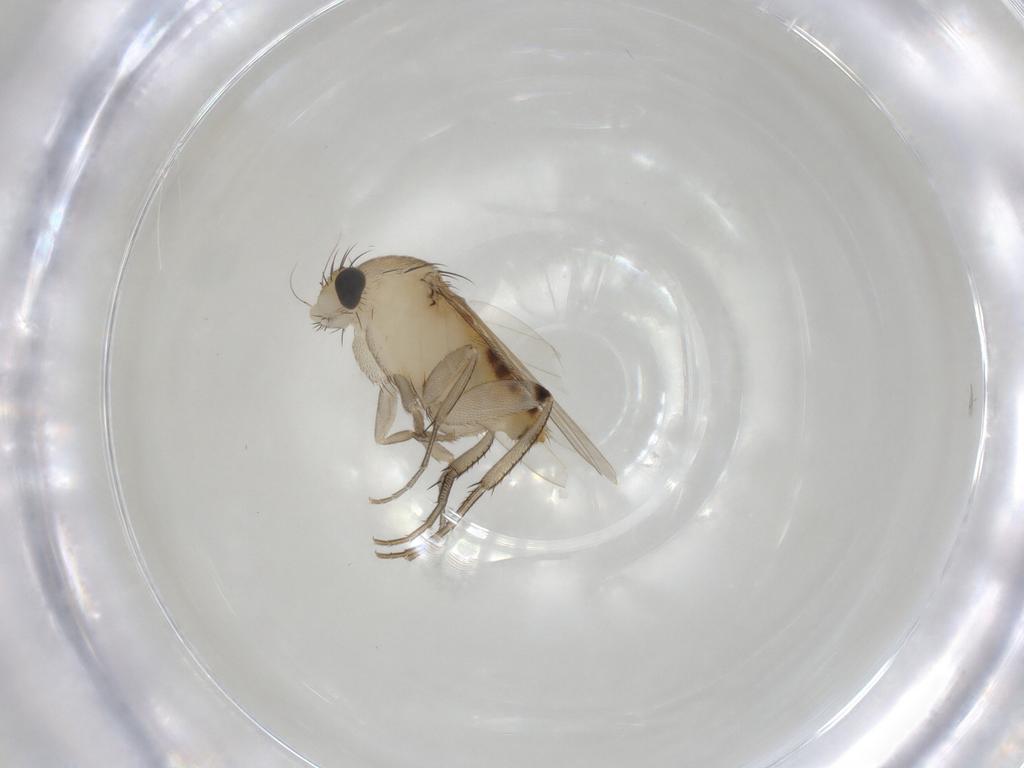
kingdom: Animalia
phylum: Arthropoda
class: Insecta
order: Diptera
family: Phoridae
